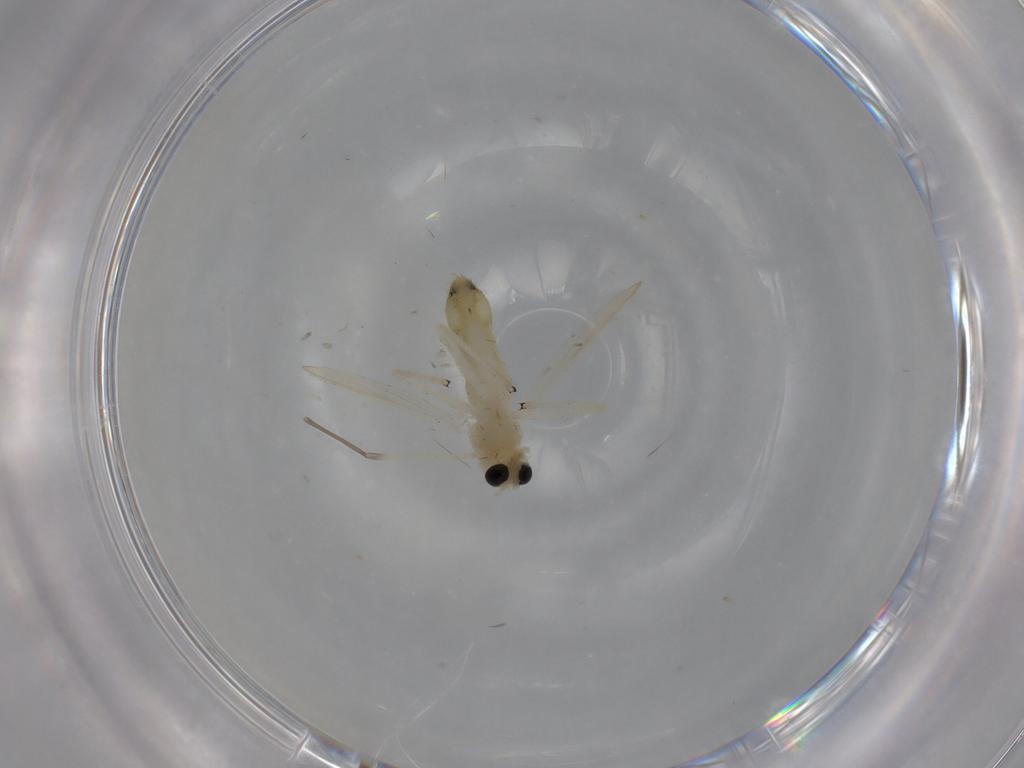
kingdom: Animalia
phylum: Arthropoda
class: Insecta
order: Diptera
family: Chironomidae
